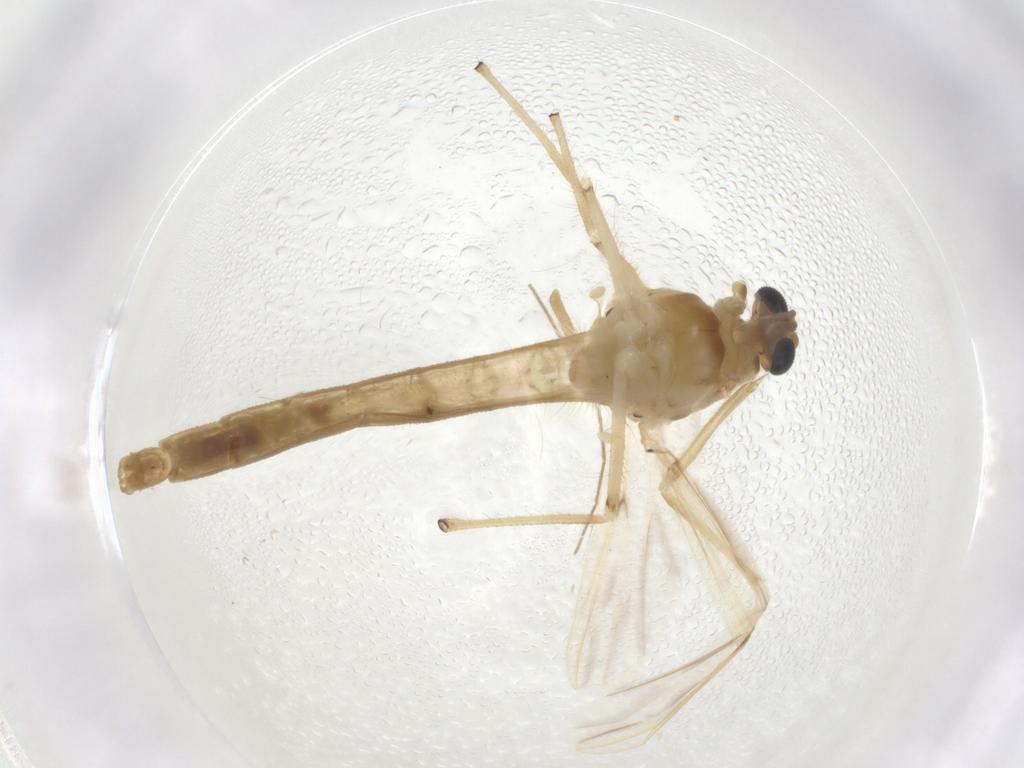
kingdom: Animalia
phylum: Arthropoda
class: Insecta
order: Diptera
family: Chironomidae
